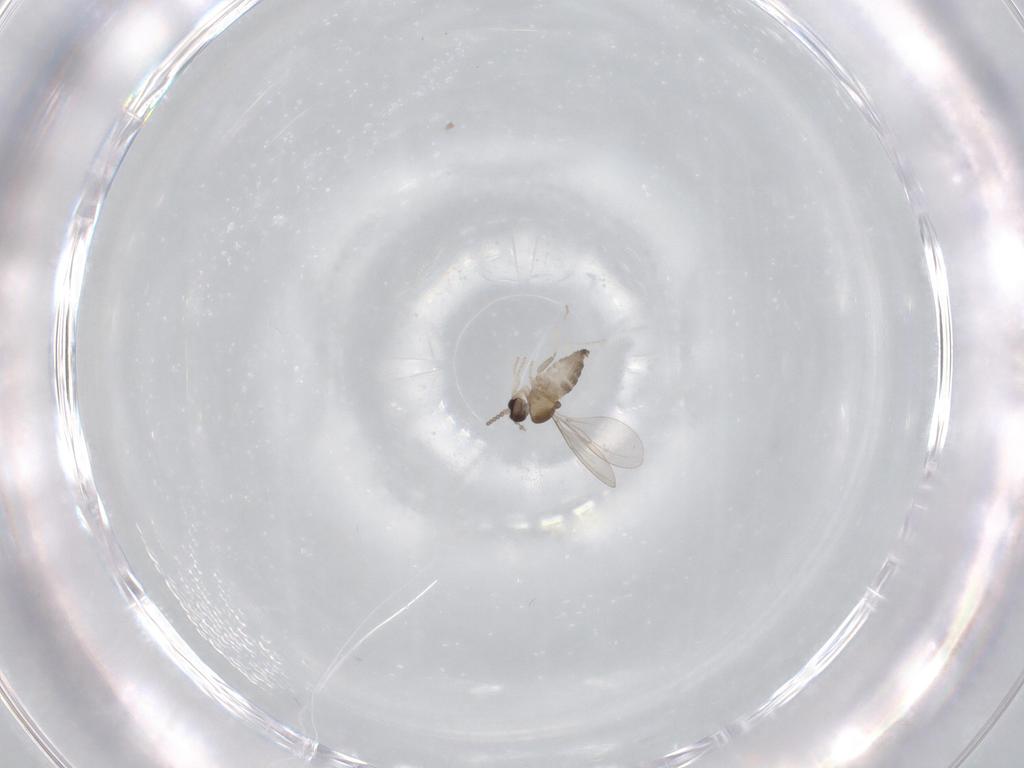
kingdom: Animalia
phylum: Arthropoda
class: Insecta
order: Diptera
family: Cecidomyiidae
